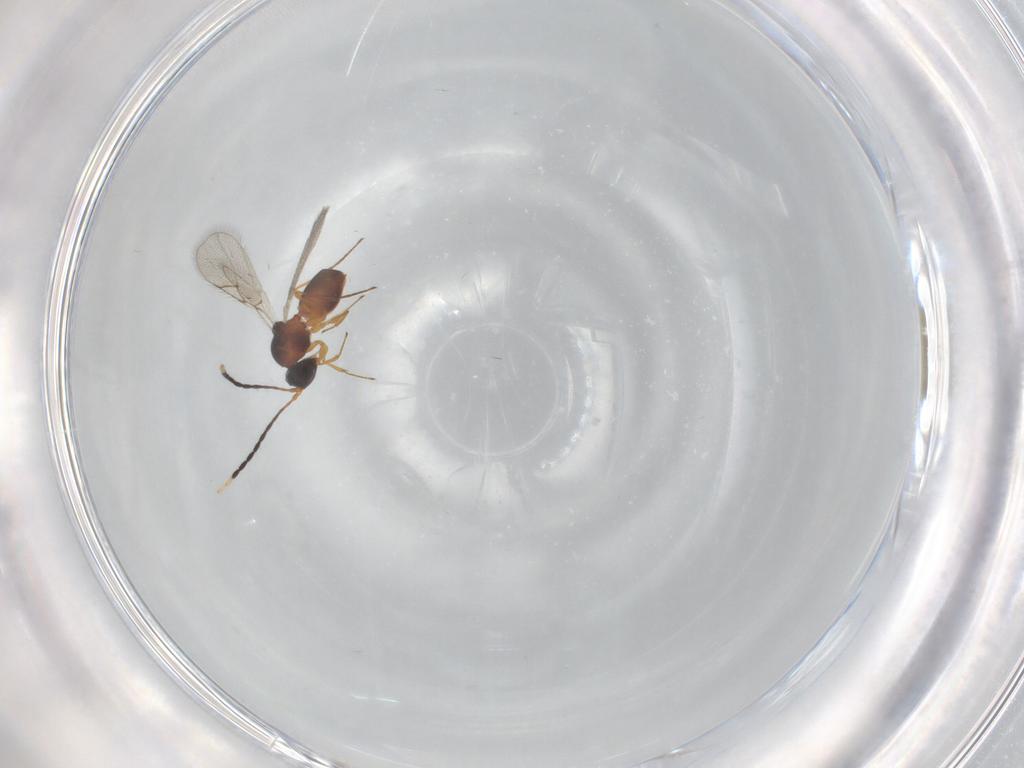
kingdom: Animalia
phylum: Arthropoda
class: Insecta
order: Hymenoptera
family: Figitidae
